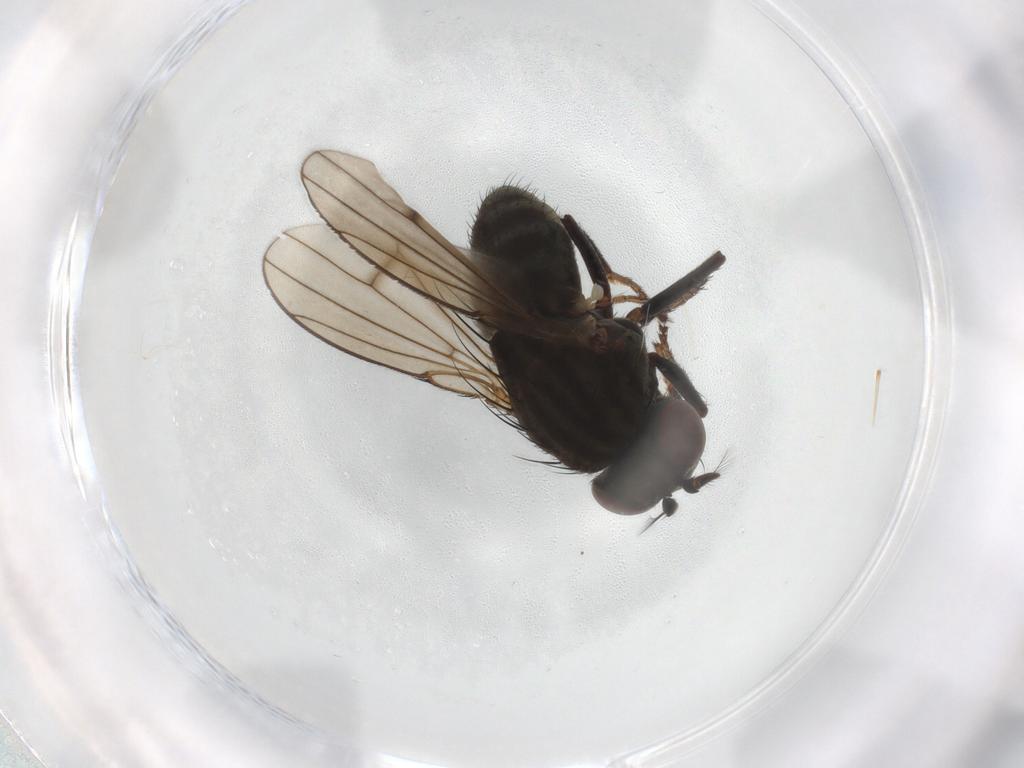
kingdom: Animalia
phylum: Arthropoda
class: Insecta
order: Diptera
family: Ephydridae
